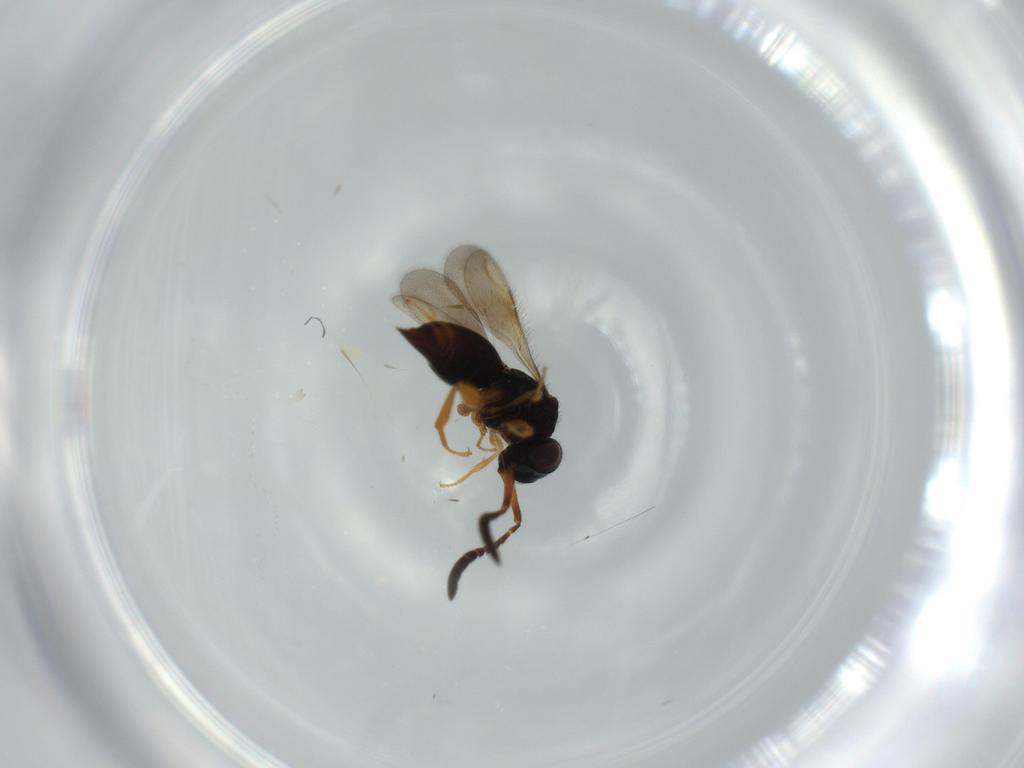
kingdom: Animalia
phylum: Arthropoda
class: Insecta
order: Hymenoptera
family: Ceraphronidae
